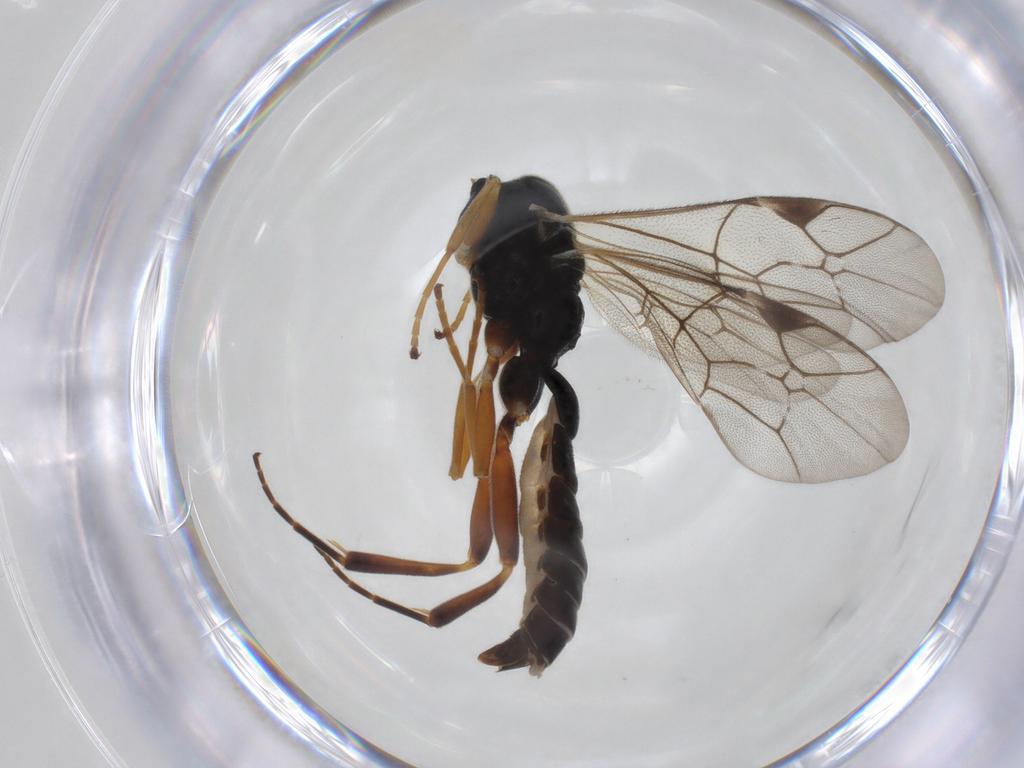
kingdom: Animalia
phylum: Arthropoda
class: Insecta
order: Hymenoptera
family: Ichneumonidae
